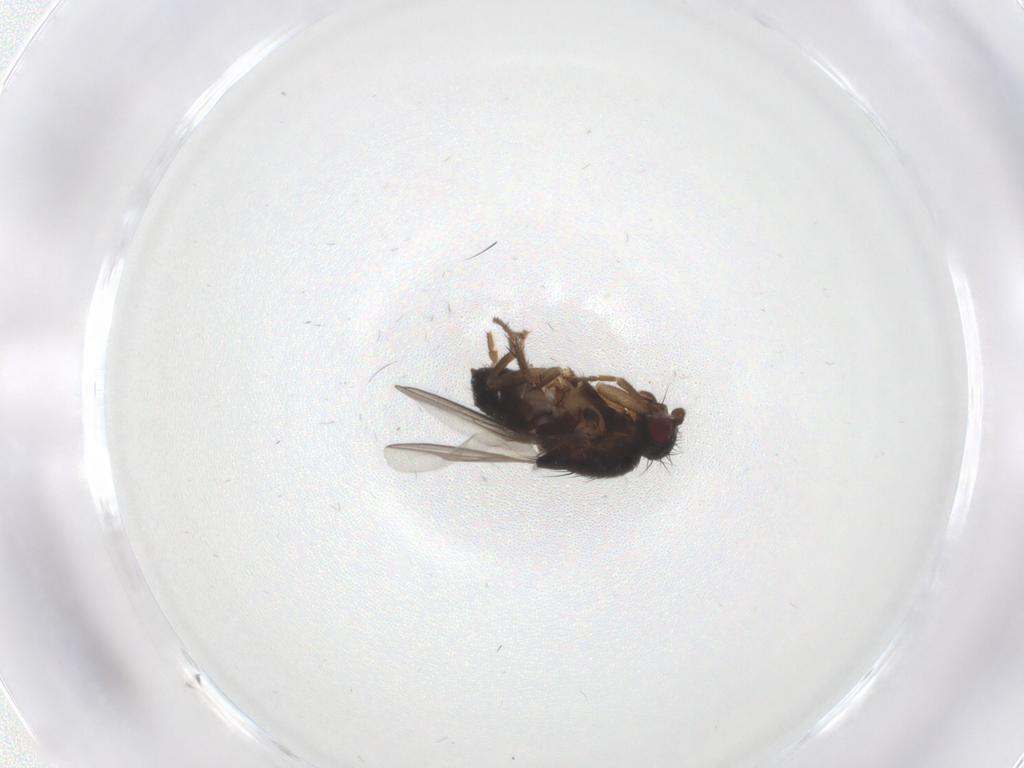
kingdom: Animalia
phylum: Arthropoda
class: Insecta
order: Diptera
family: Sphaeroceridae
